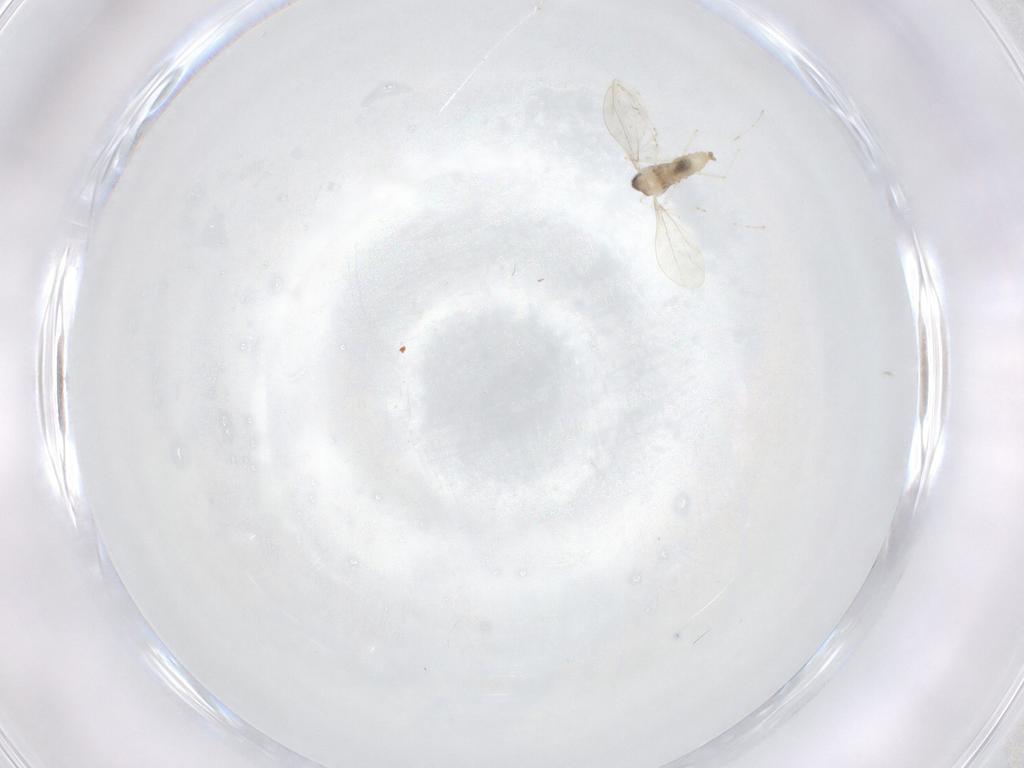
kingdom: Animalia
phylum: Arthropoda
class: Insecta
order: Diptera
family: Cecidomyiidae
